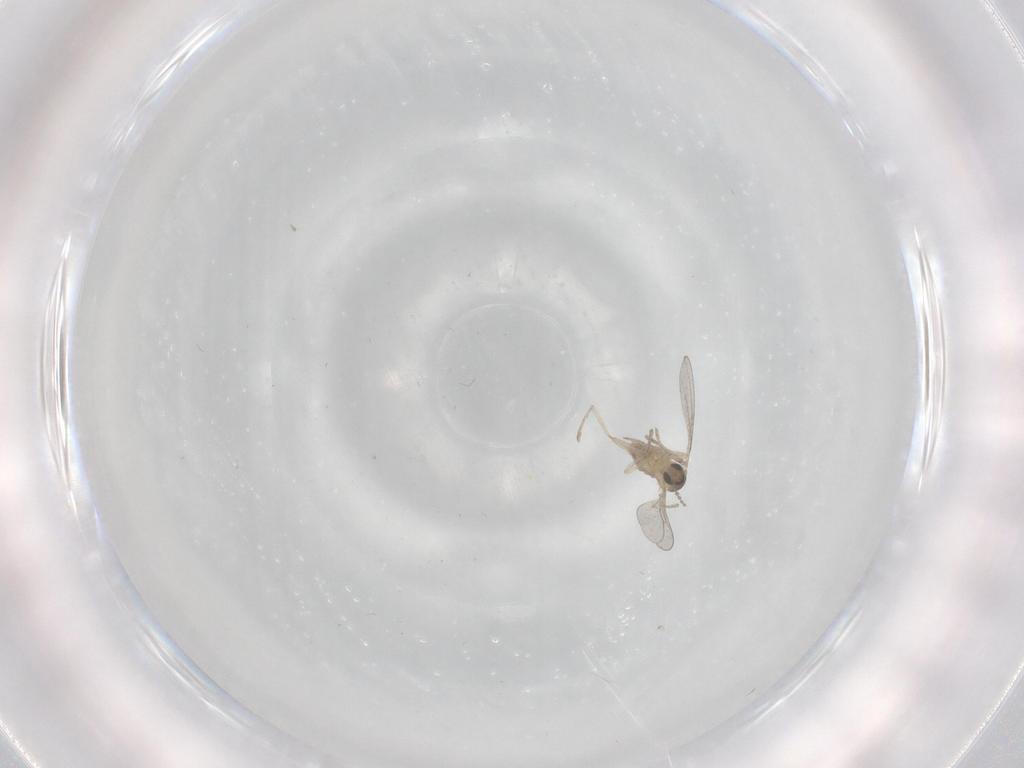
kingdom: Animalia
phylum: Arthropoda
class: Insecta
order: Diptera
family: Cecidomyiidae
